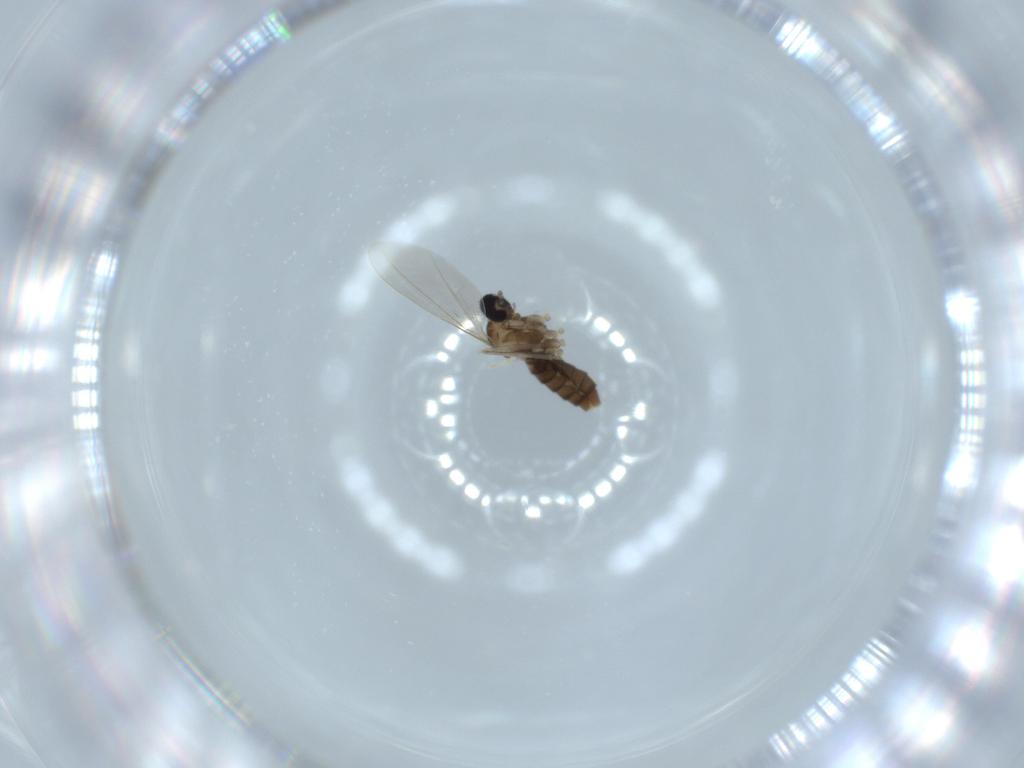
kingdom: Animalia
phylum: Arthropoda
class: Insecta
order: Diptera
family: Cecidomyiidae
